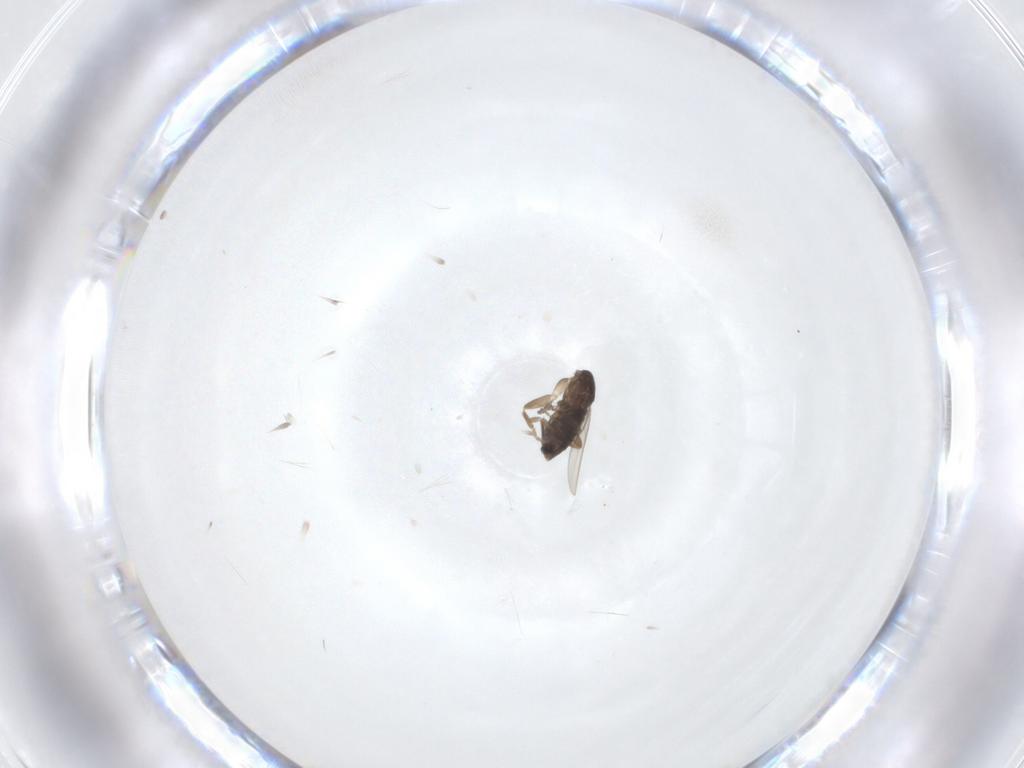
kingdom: Animalia
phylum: Arthropoda
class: Insecta
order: Diptera
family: Phoridae
